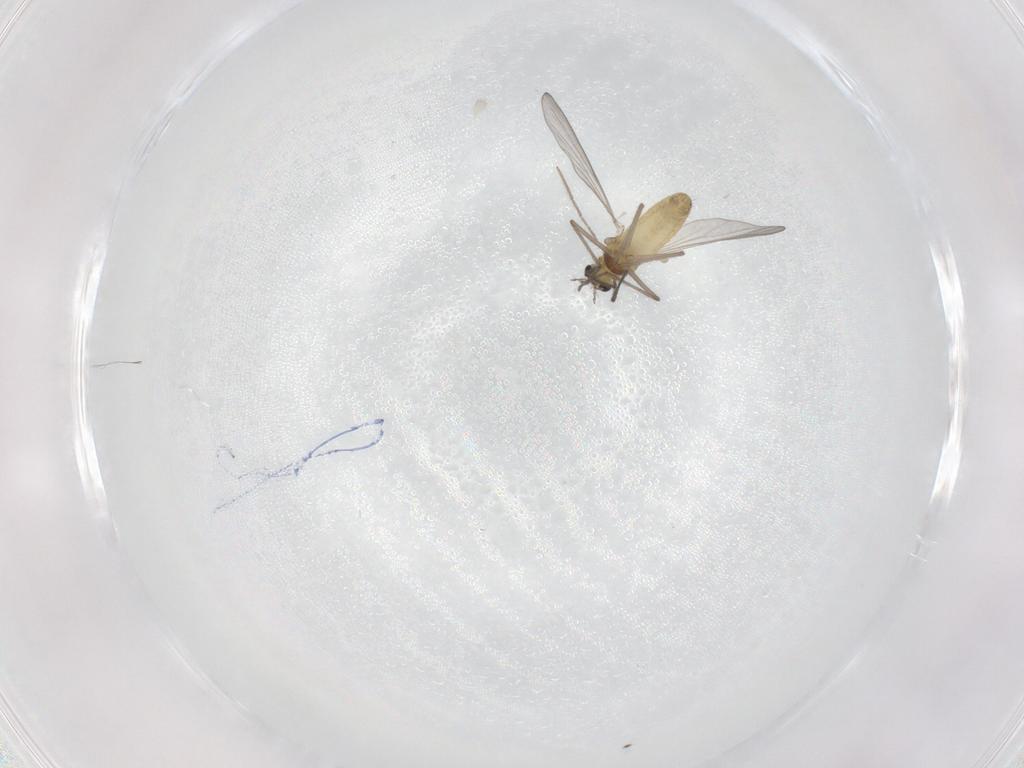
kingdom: Animalia
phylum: Arthropoda
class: Insecta
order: Diptera
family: Chironomidae
